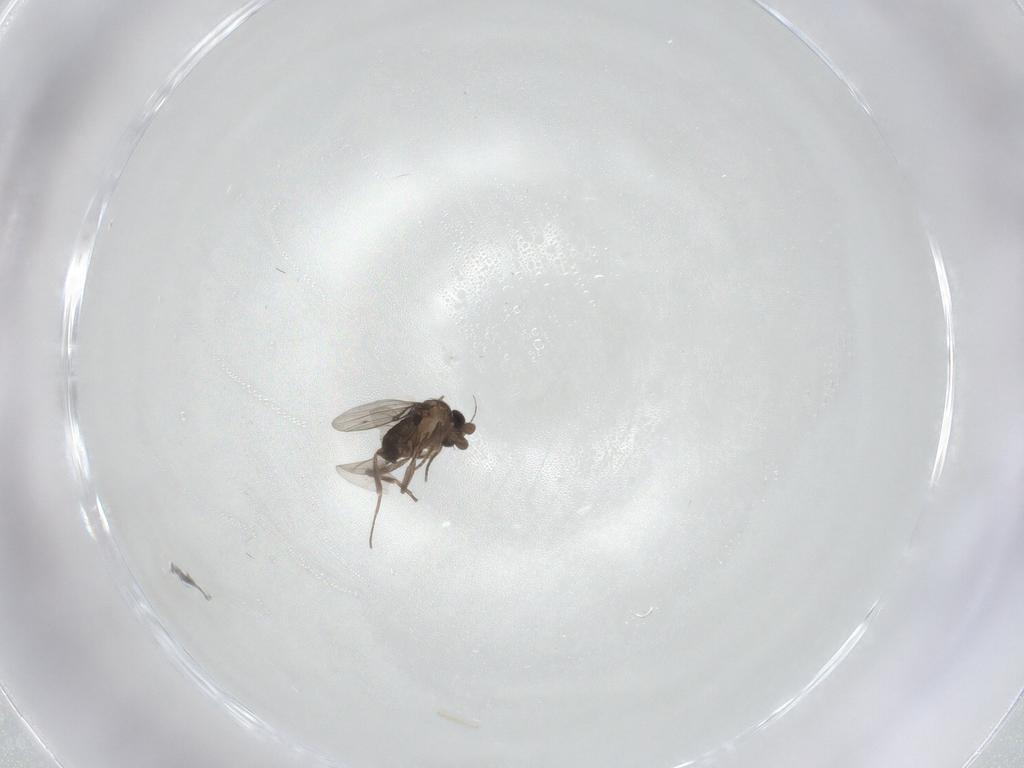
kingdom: Animalia
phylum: Arthropoda
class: Insecta
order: Diptera
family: Phoridae
